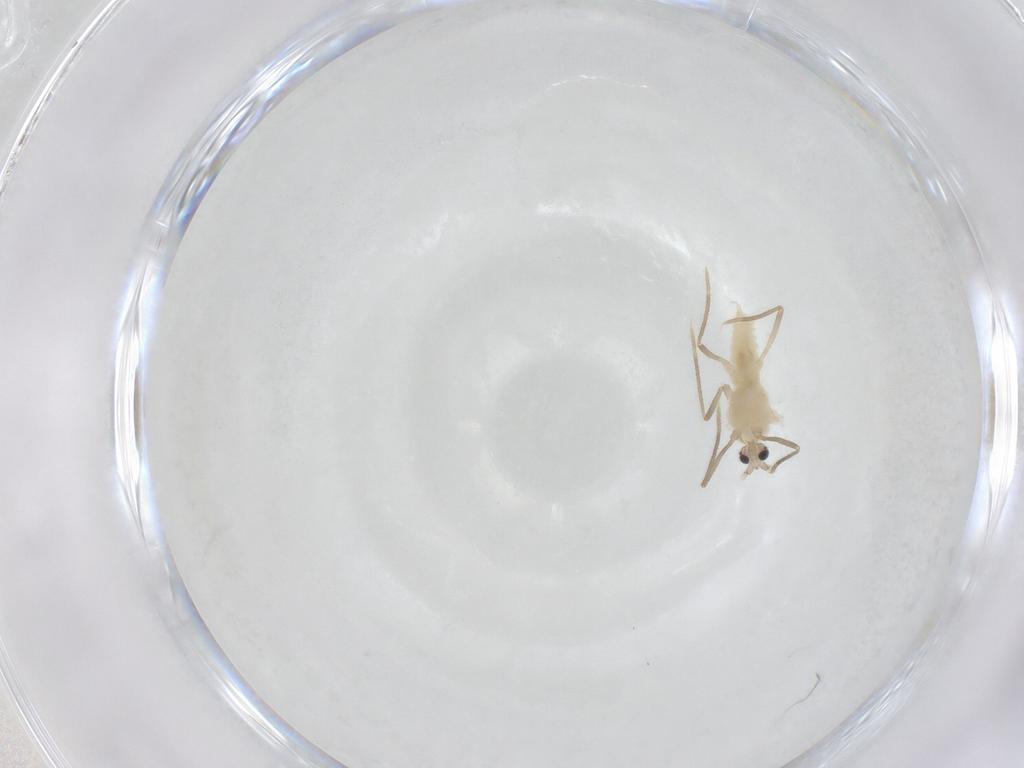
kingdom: Animalia
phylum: Arthropoda
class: Insecta
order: Diptera
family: Chironomidae
